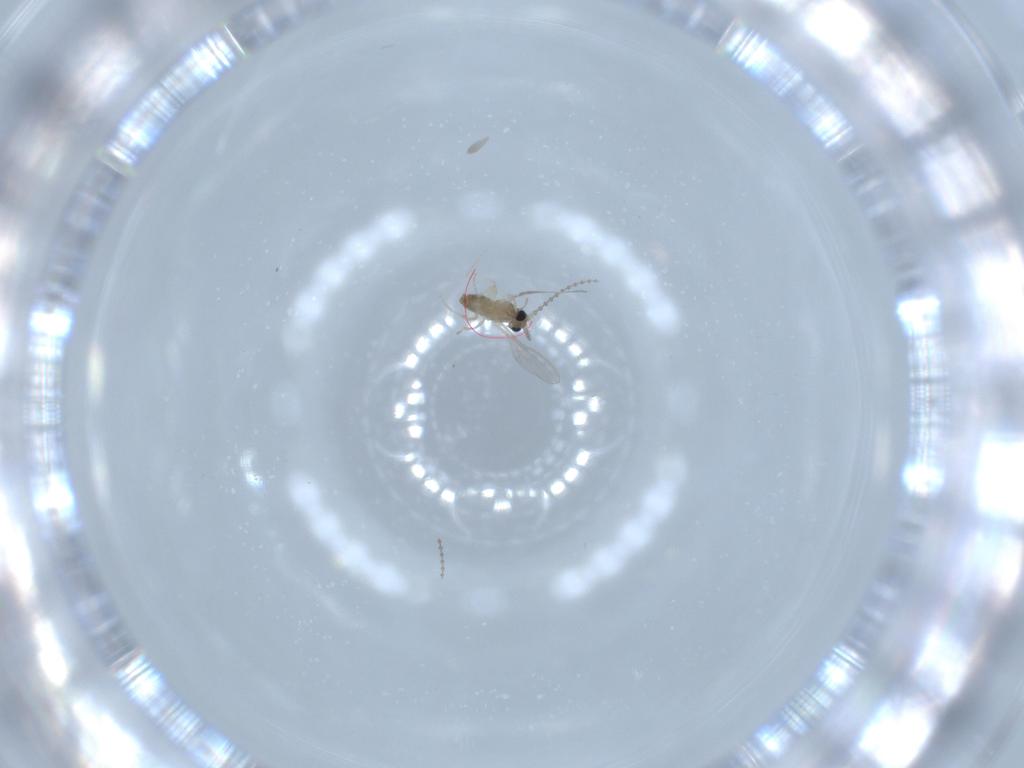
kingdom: Animalia
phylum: Arthropoda
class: Insecta
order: Diptera
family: Cecidomyiidae
